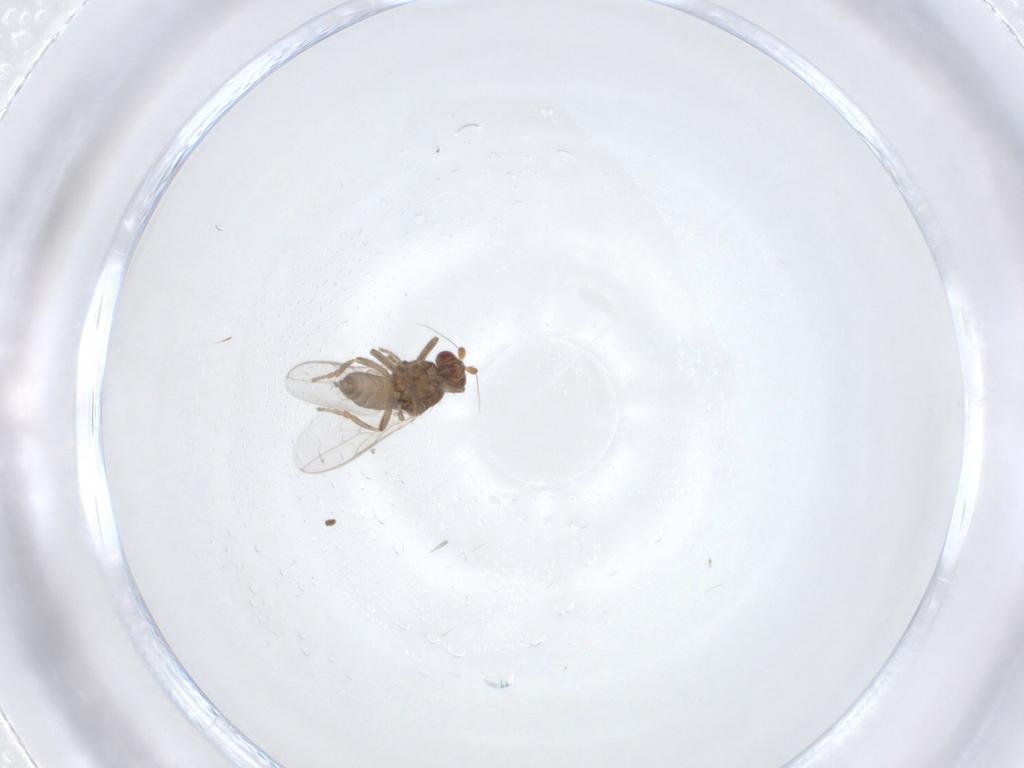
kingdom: Animalia
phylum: Arthropoda
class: Insecta
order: Diptera
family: Sphaeroceridae
